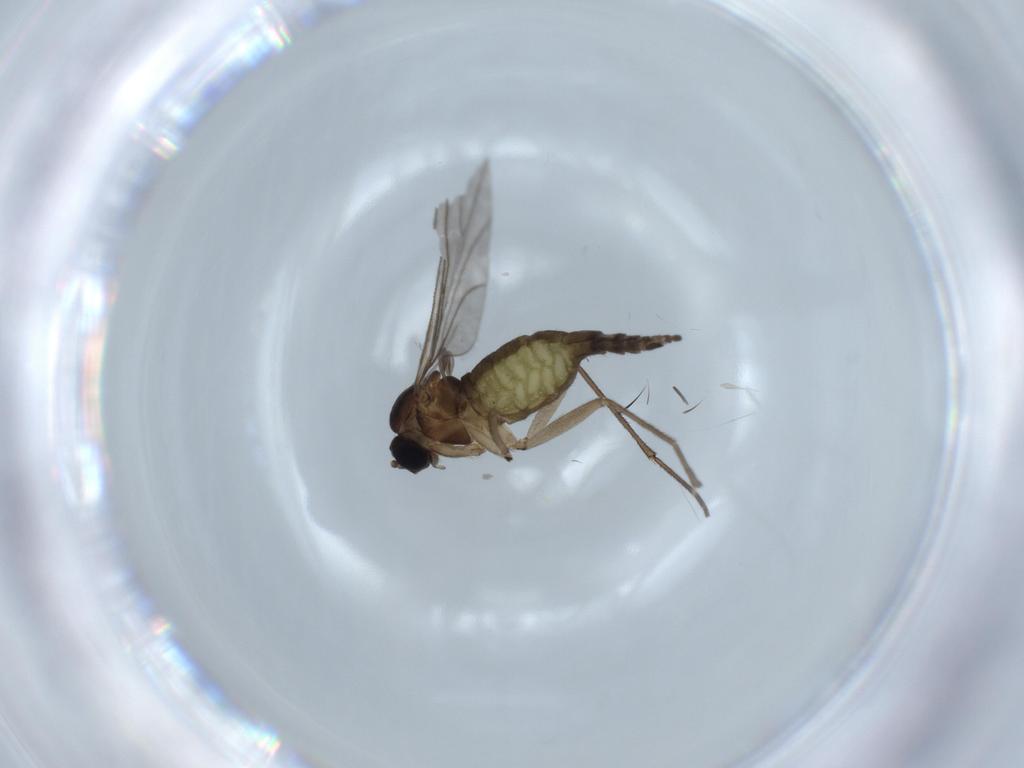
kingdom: Animalia
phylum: Arthropoda
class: Insecta
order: Diptera
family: Sciaridae
